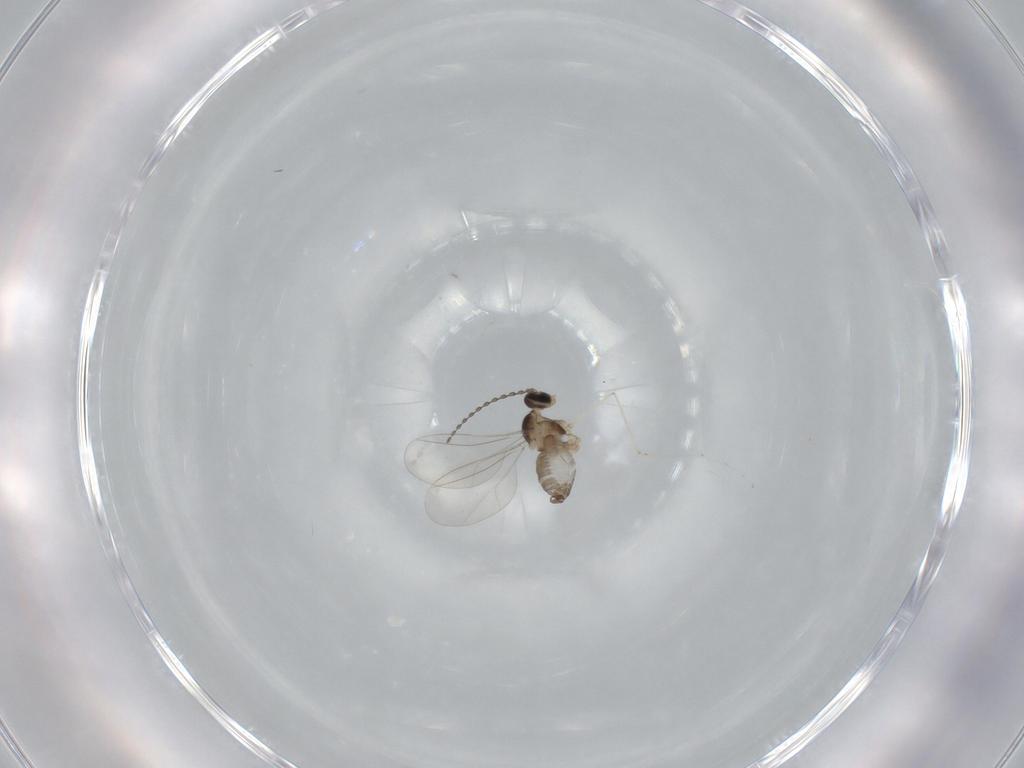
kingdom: Animalia
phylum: Arthropoda
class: Insecta
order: Diptera
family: Cecidomyiidae
